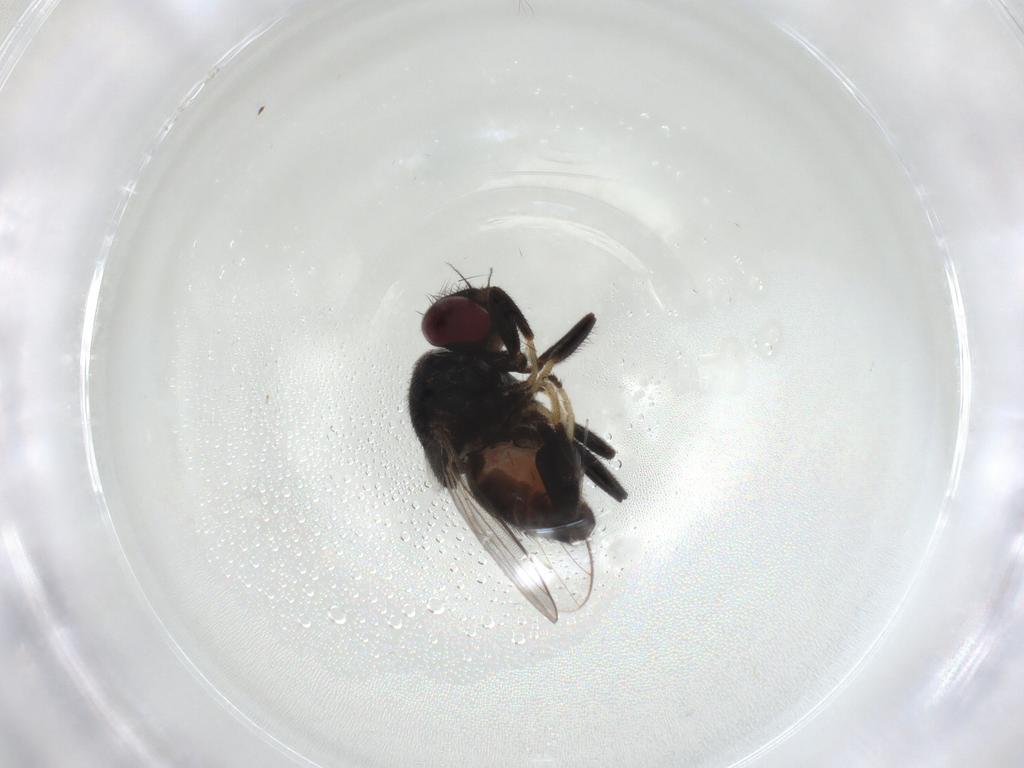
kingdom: Animalia
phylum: Arthropoda
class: Insecta
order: Diptera
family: Chloropidae
